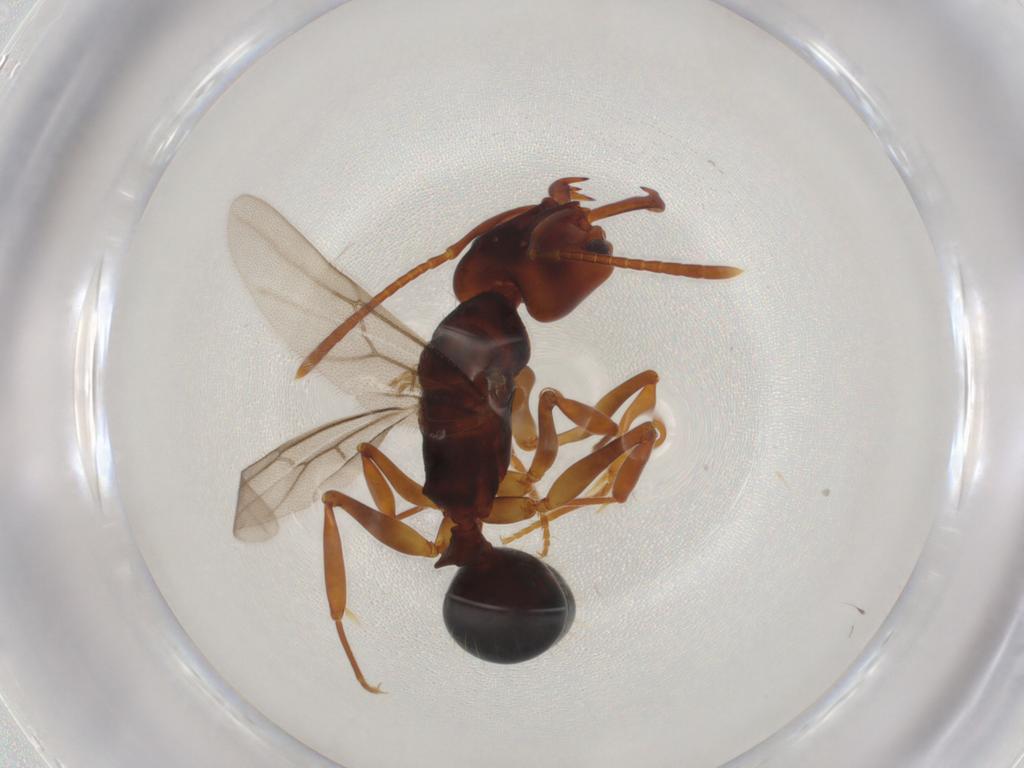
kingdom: Animalia
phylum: Arthropoda
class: Insecta
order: Hymenoptera
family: Formicidae
